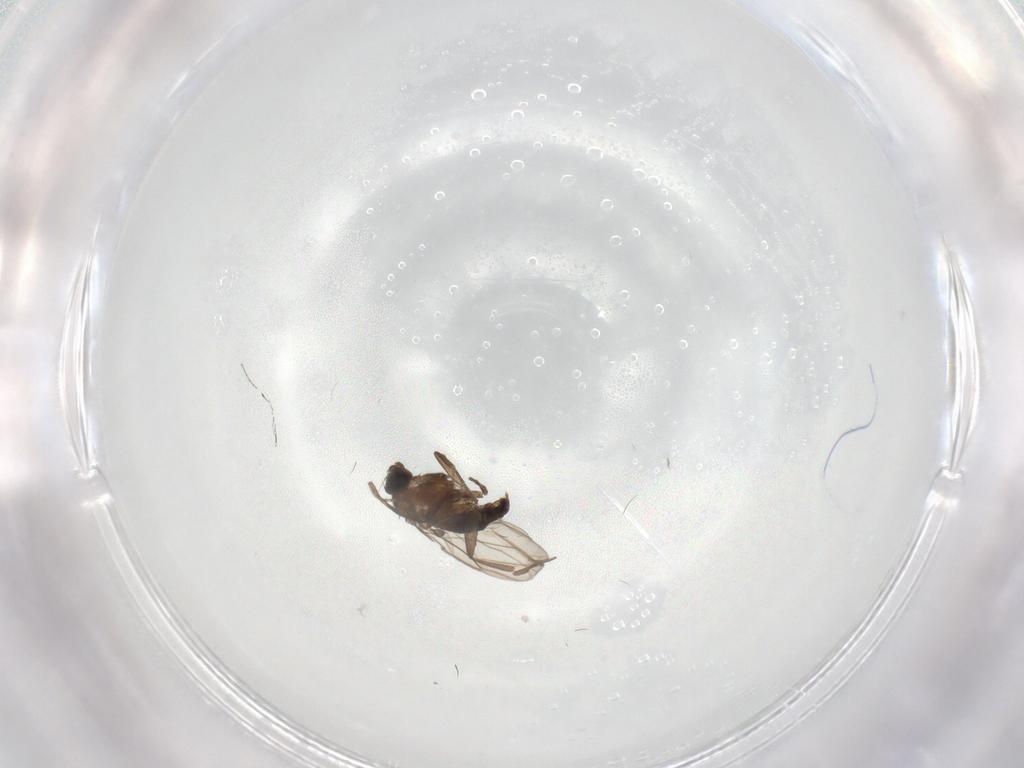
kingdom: Animalia
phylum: Arthropoda
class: Insecta
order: Diptera
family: Cecidomyiidae
